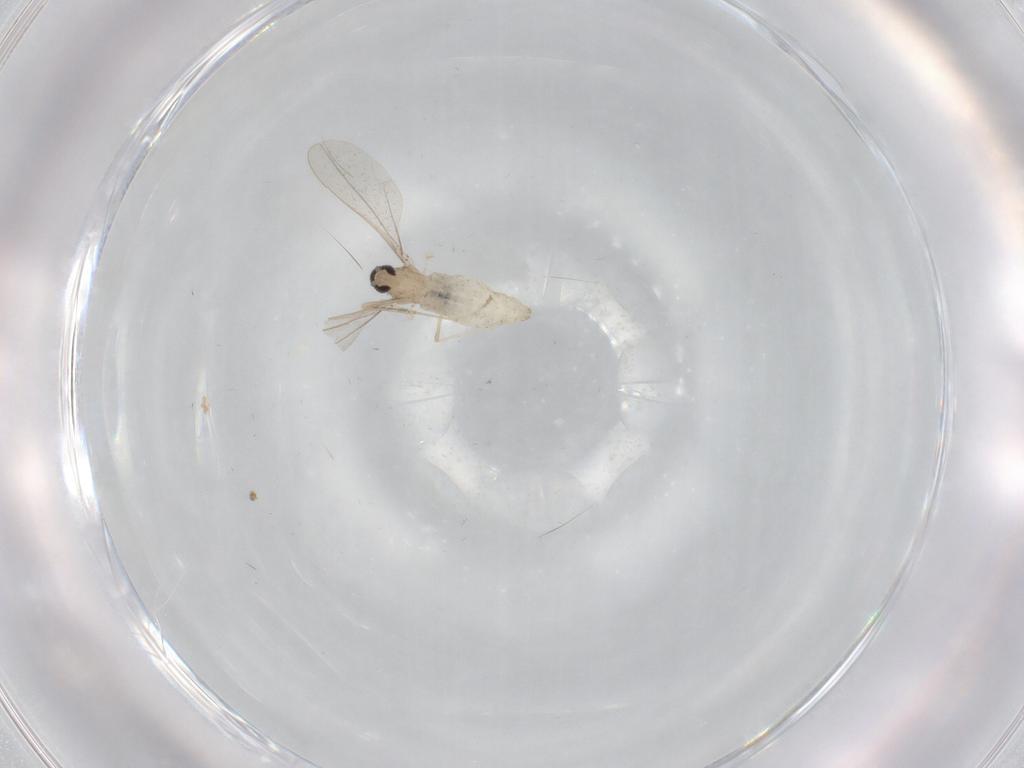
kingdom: Animalia
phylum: Arthropoda
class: Insecta
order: Diptera
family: Cecidomyiidae
